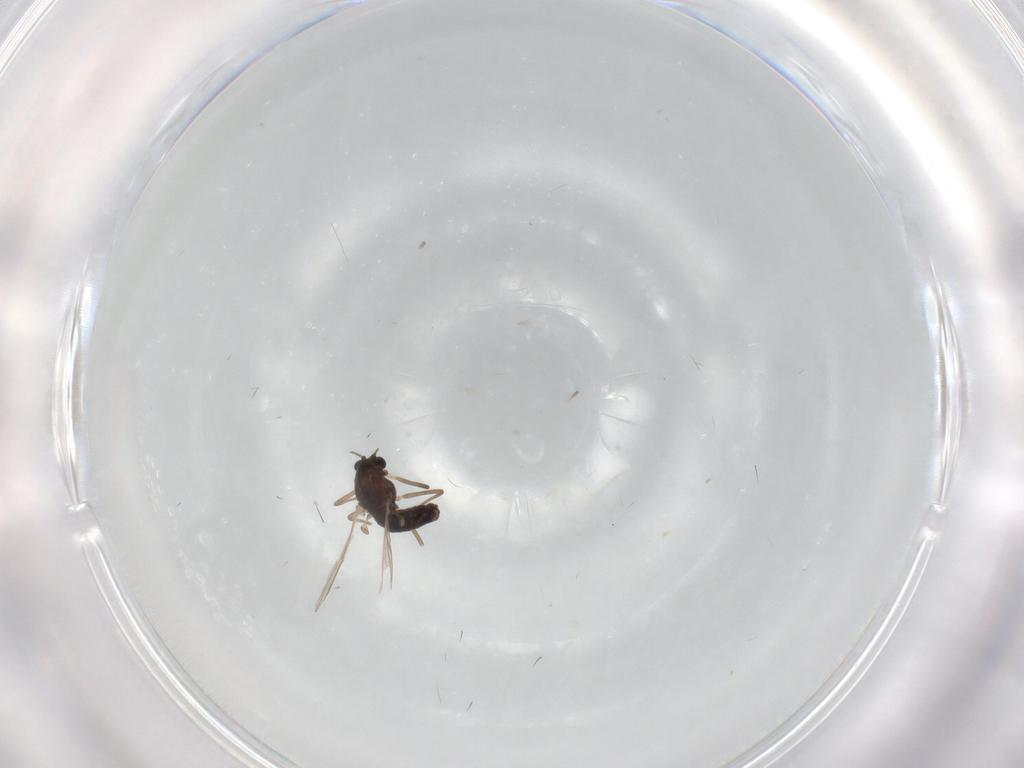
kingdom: Animalia
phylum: Arthropoda
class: Insecta
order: Diptera
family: Chironomidae
